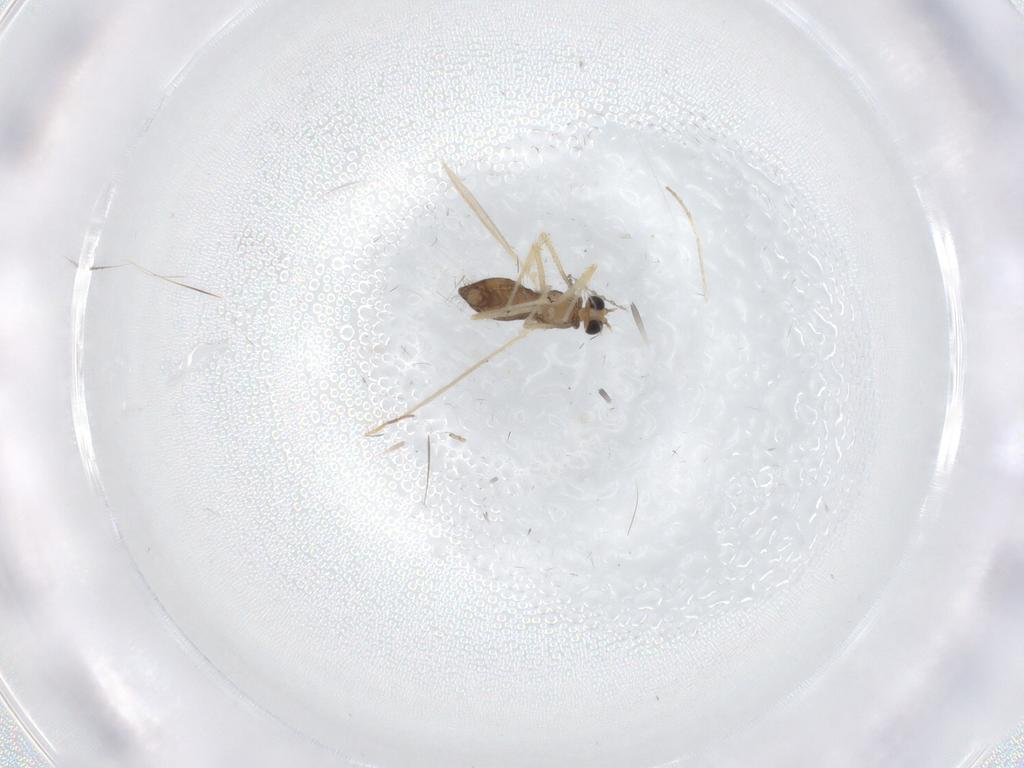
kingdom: Animalia
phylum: Arthropoda
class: Insecta
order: Diptera
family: Chironomidae
